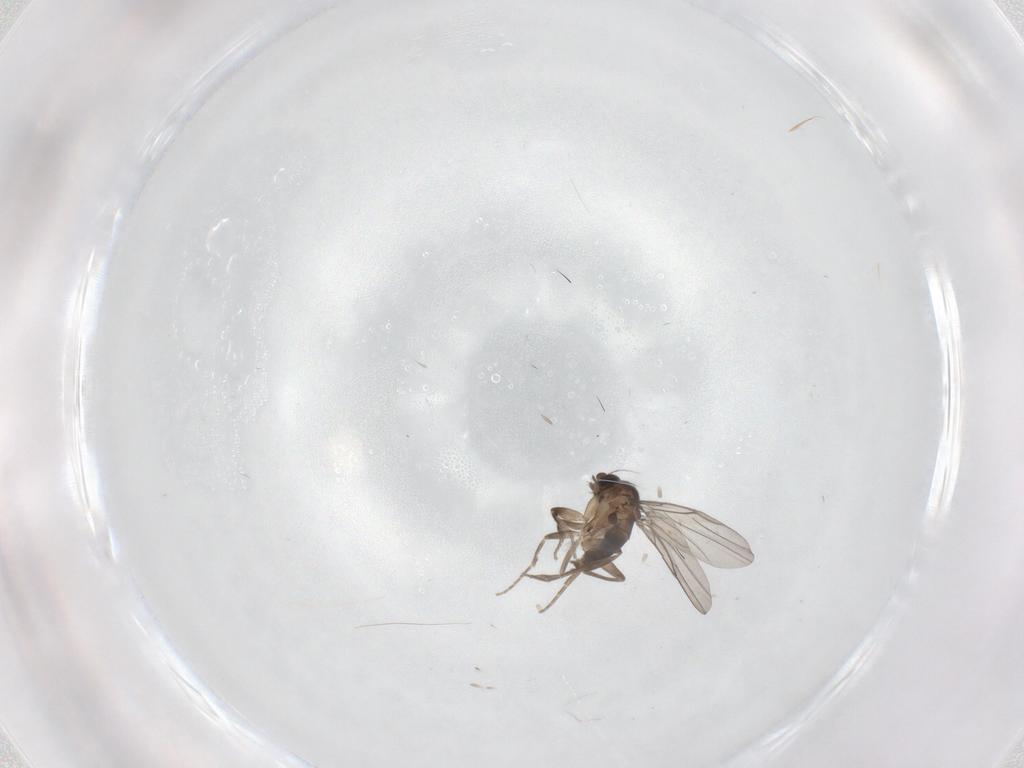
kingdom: Animalia
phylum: Arthropoda
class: Insecta
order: Diptera
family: Phoridae
